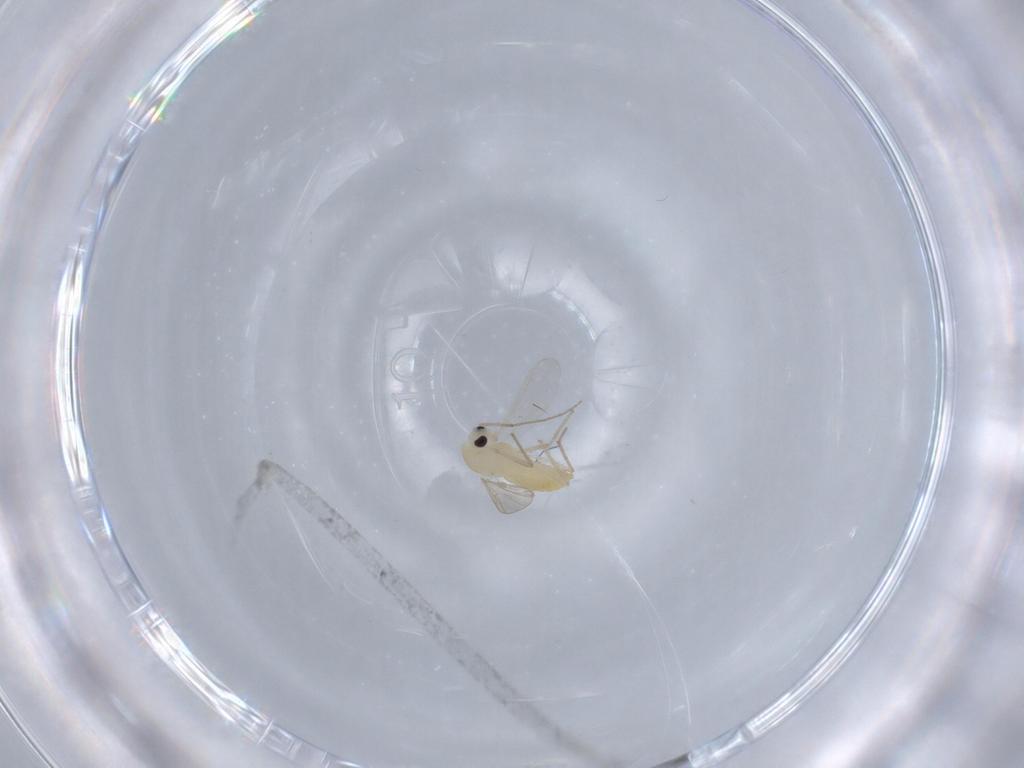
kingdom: Animalia
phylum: Arthropoda
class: Insecta
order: Diptera
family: Chironomidae
